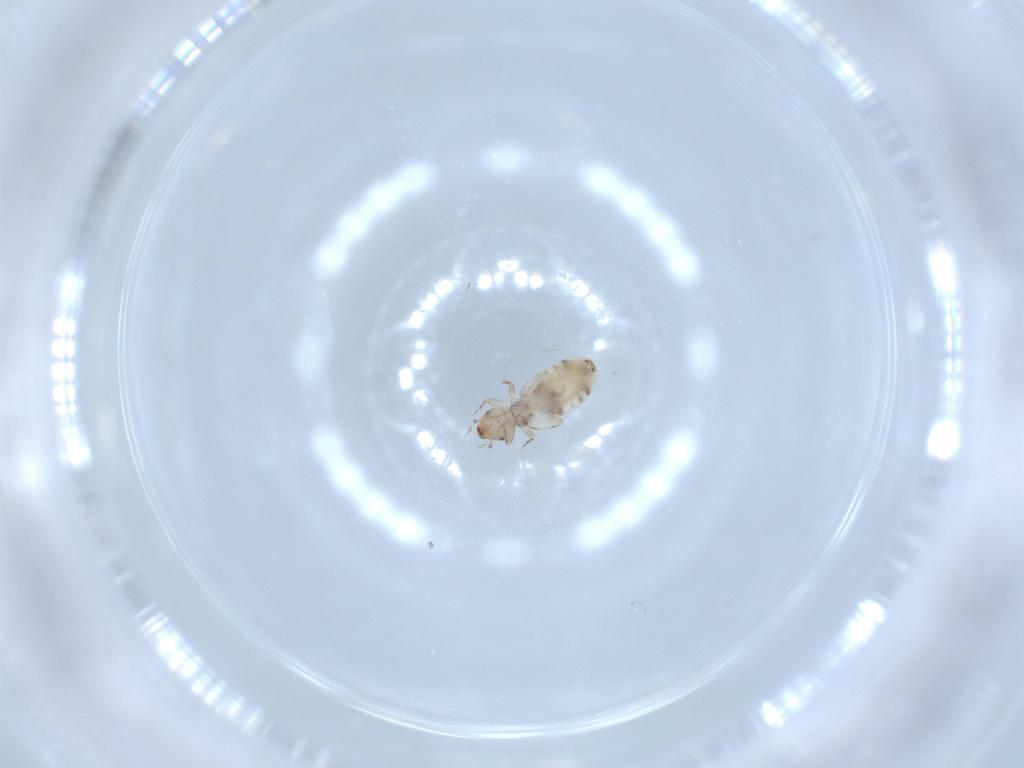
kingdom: Animalia
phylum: Arthropoda
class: Insecta
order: Psocodea
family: Liposcelididae
